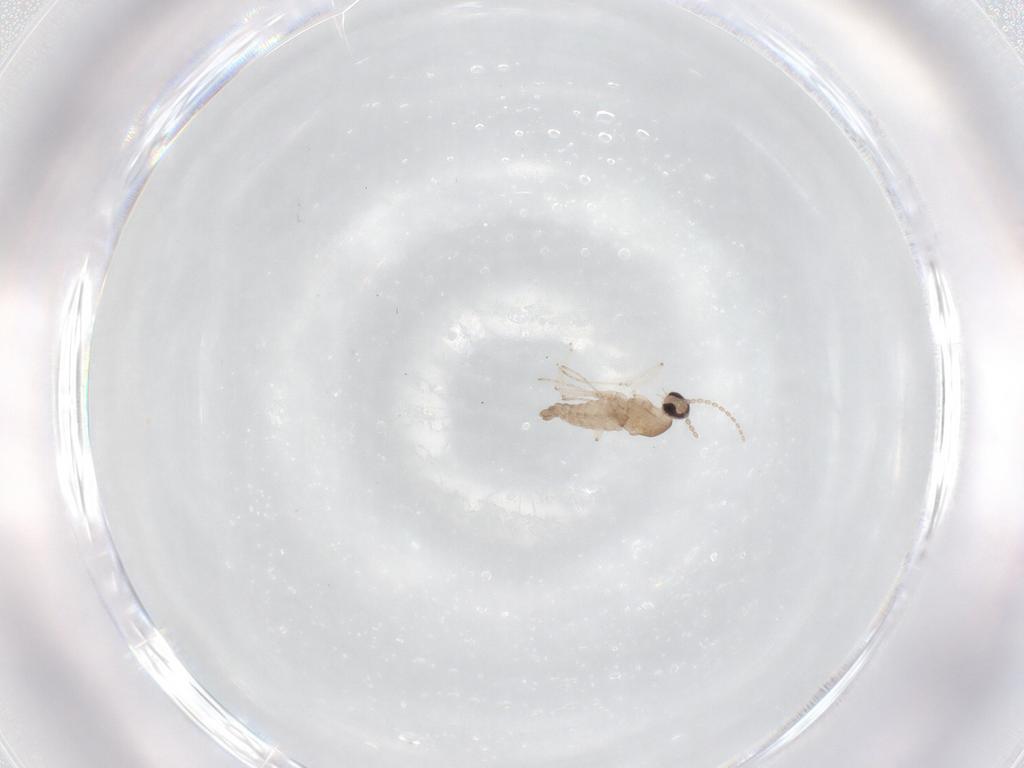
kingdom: Animalia
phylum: Arthropoda
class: Insecta
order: Diptera
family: Cecidomyiidae
